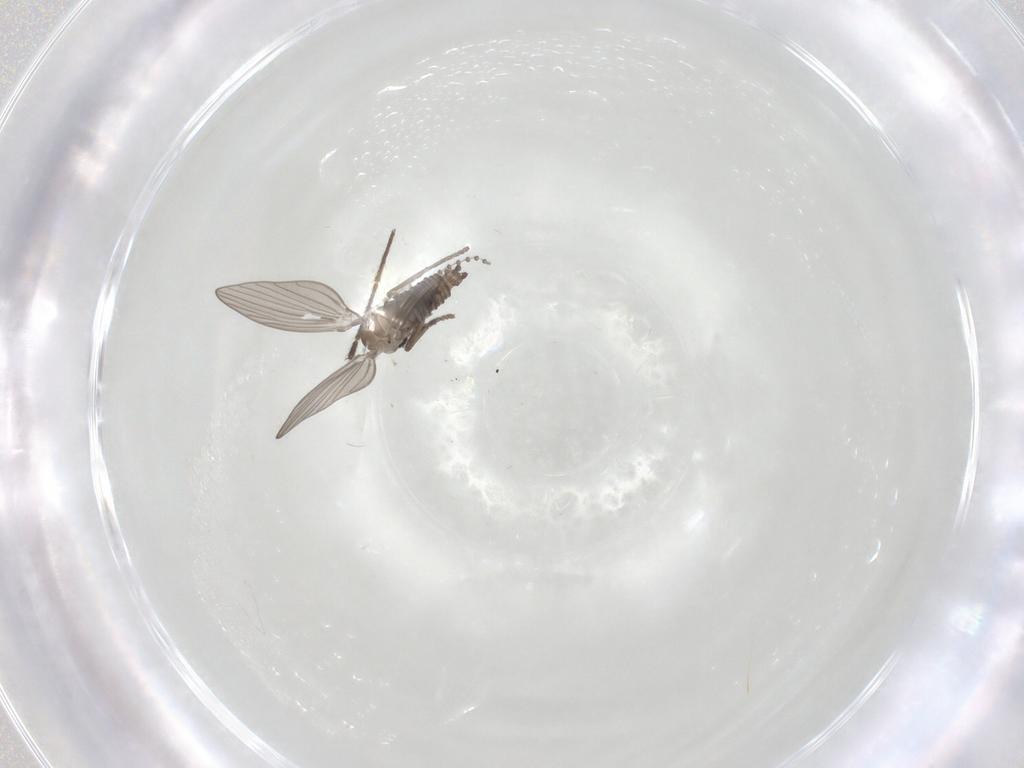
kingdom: Animalia
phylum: Arthropoda
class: Insecta
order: Diptera
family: Psychodidae
